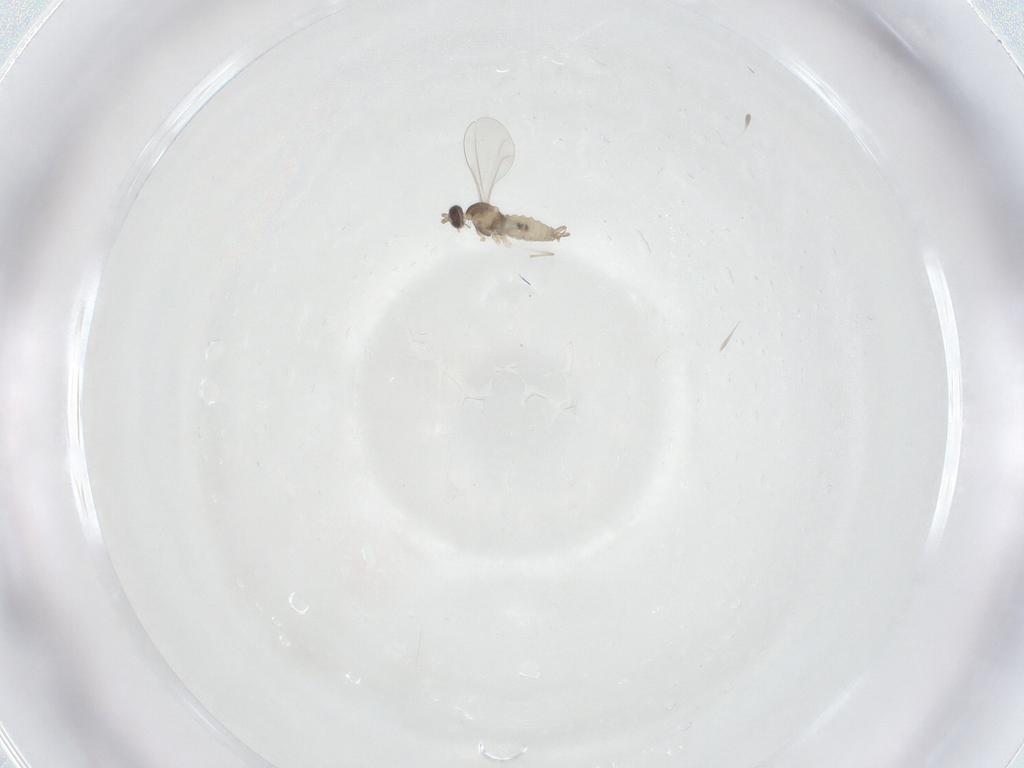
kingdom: Animalia
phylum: Arthropoda
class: Insecta
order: Diptera
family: Cecidomyiidae
